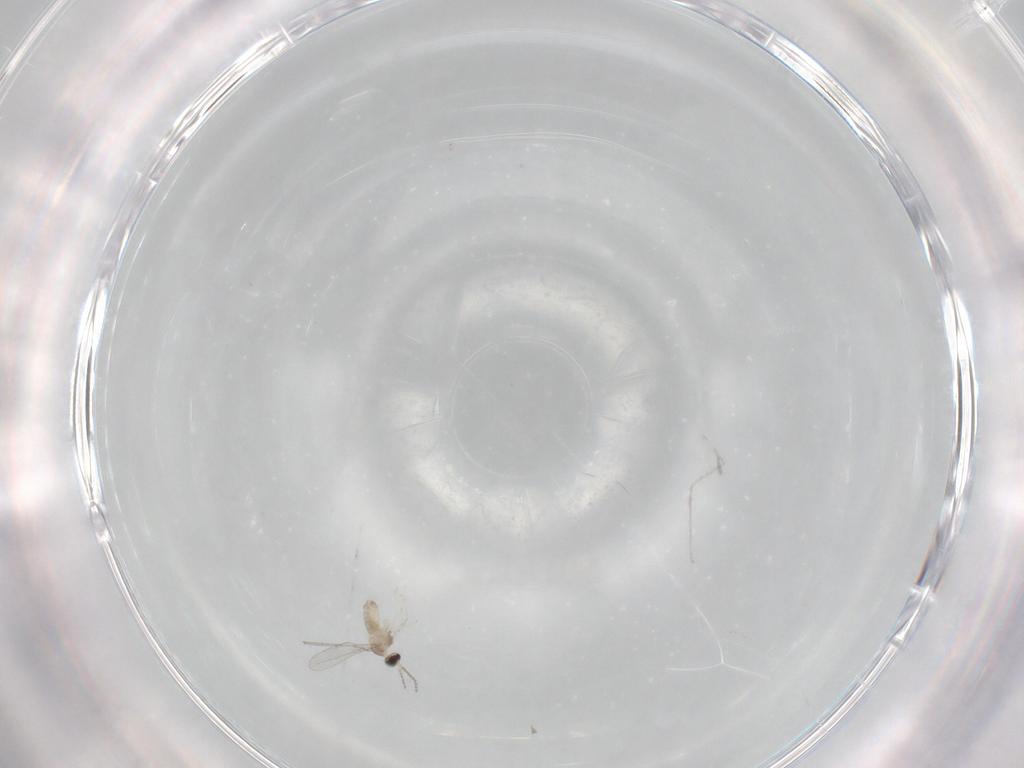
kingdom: Animalia
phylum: Arthropoda
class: Insecta
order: Diptera
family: Cecidomyiidae
